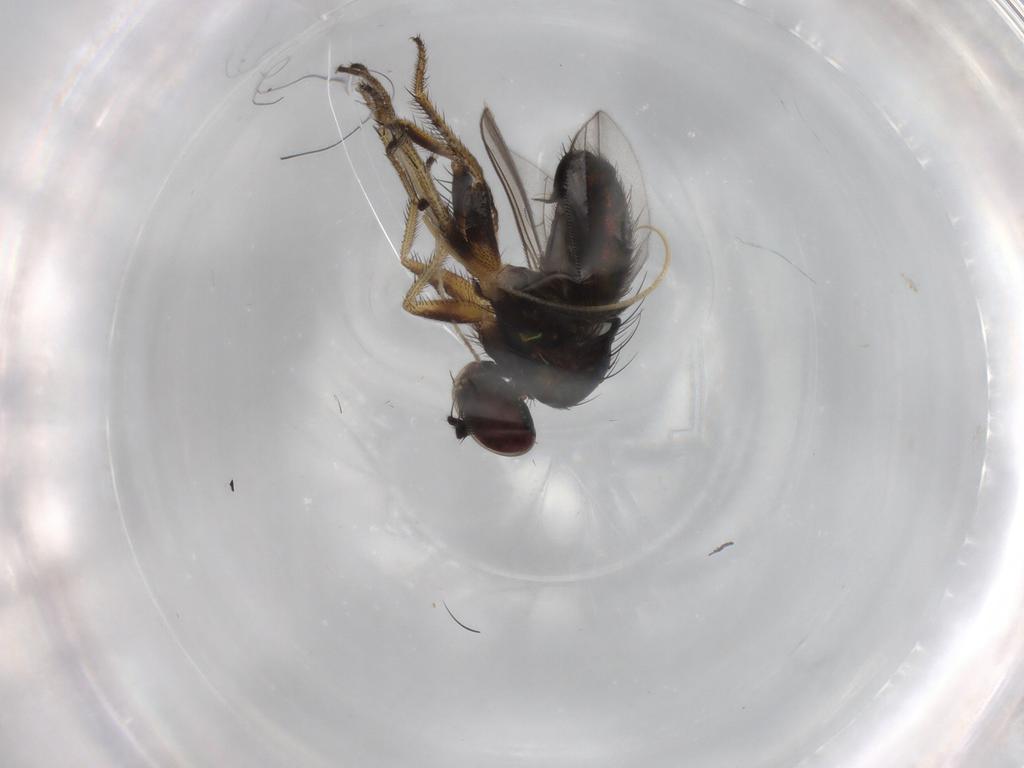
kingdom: Animalia
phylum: Arthropoda
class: Insecta
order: Diptera
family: Dolichopodidae
